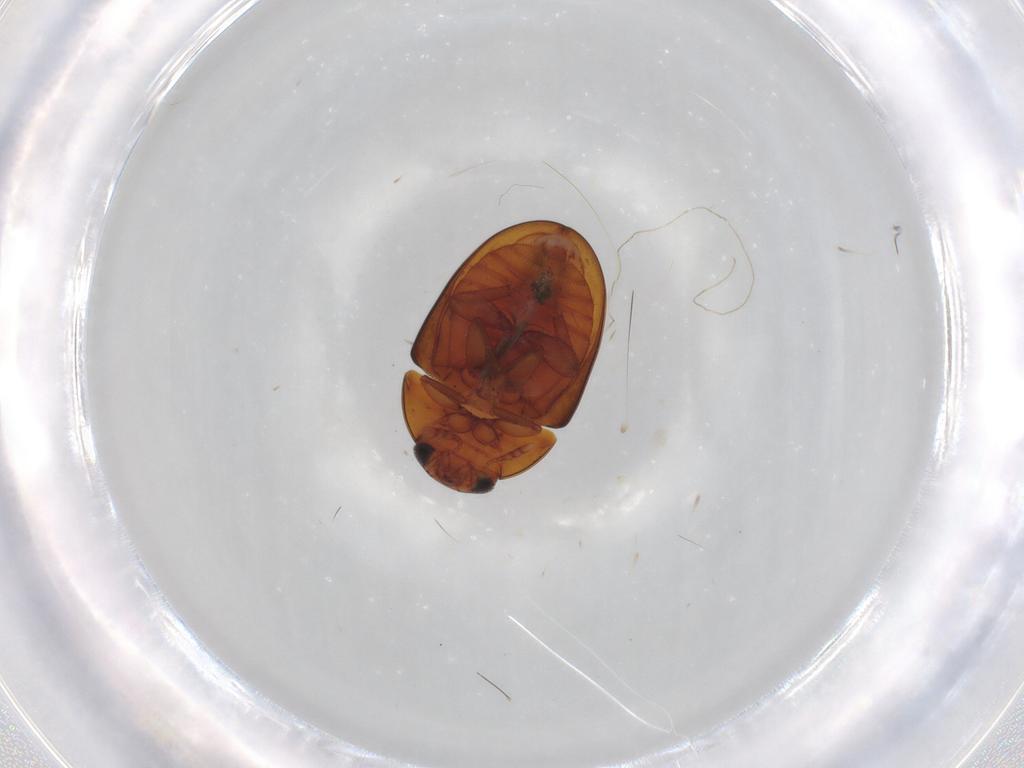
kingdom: Animalia
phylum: Arthropoda
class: Insecta
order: Coleoptera
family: Phalacridae
